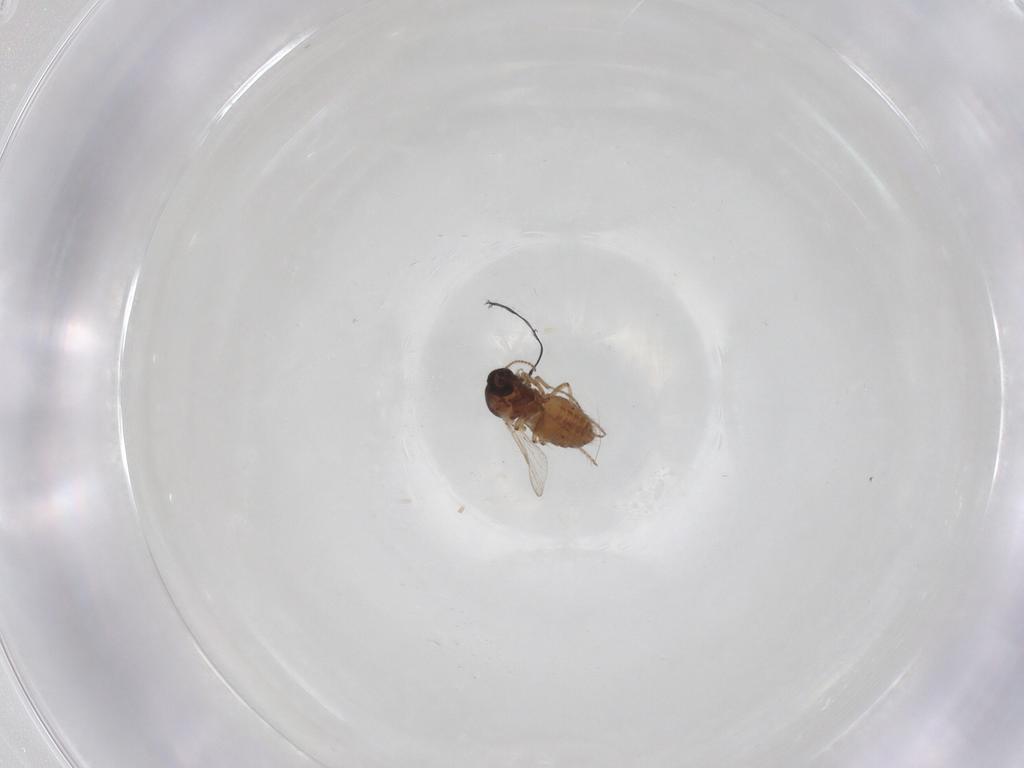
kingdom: Animalia
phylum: Arthropoda
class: Insecta
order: Diptera
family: Ceratopogonidae
